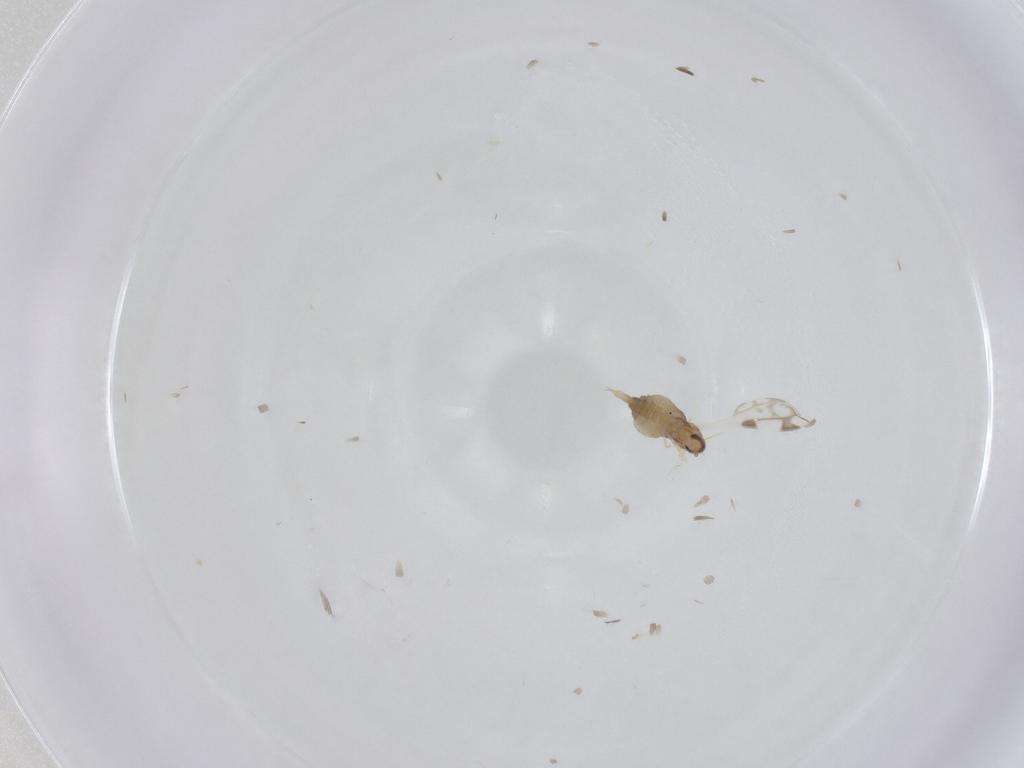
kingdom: Animalia
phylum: Arthropoda
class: Insecta
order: Diptera
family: Cecidomyiidae
